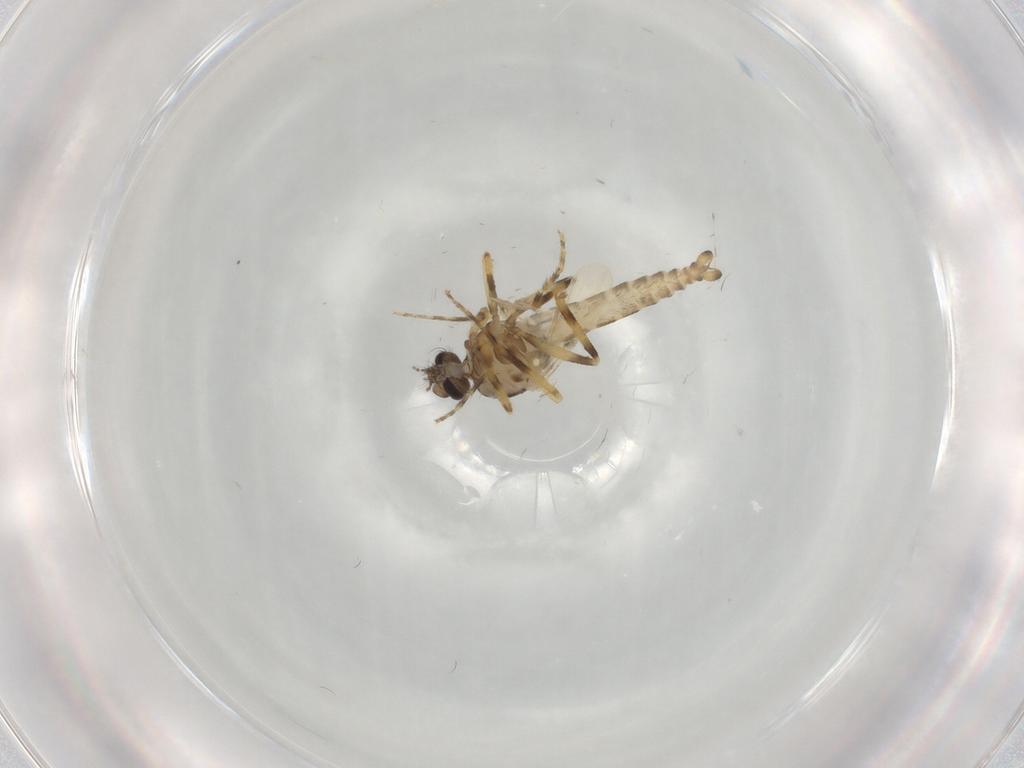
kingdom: Animalia
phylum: Arthropoda
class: Insecta
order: Diptera
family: Ceratopogonidae
